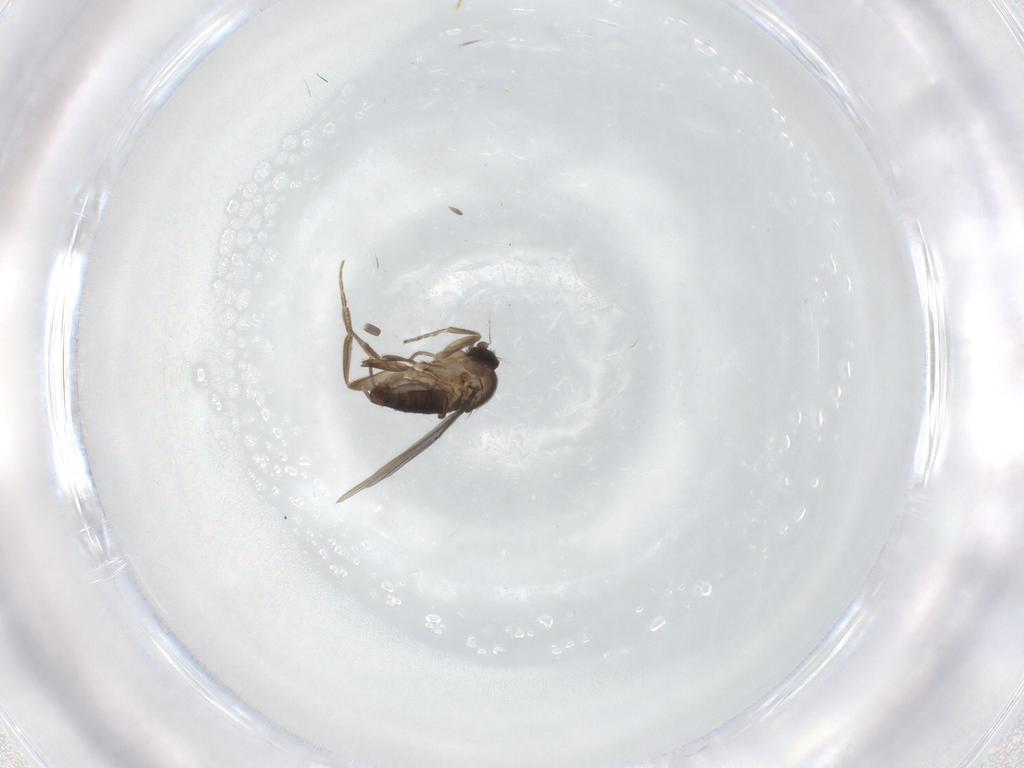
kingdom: Animalia
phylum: Arthropoda
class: Insecta
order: Diptera
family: Phoridae
